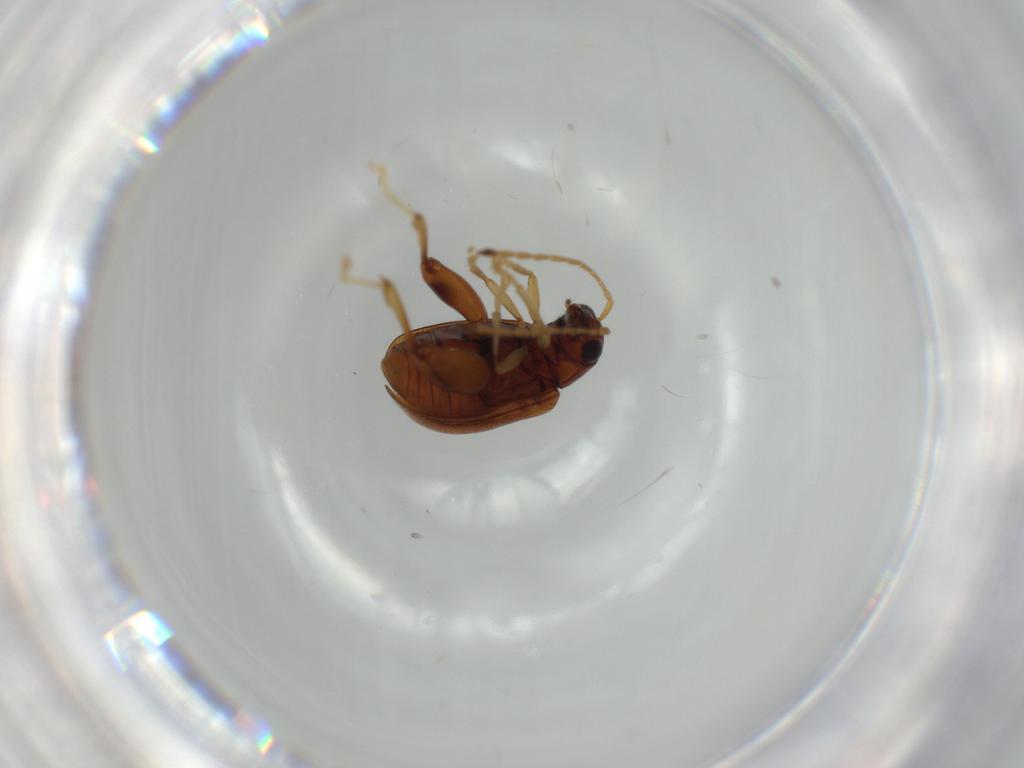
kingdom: Animalia
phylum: Arthropoda
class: Insecta
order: Coleoptera
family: Chrysomelidae
